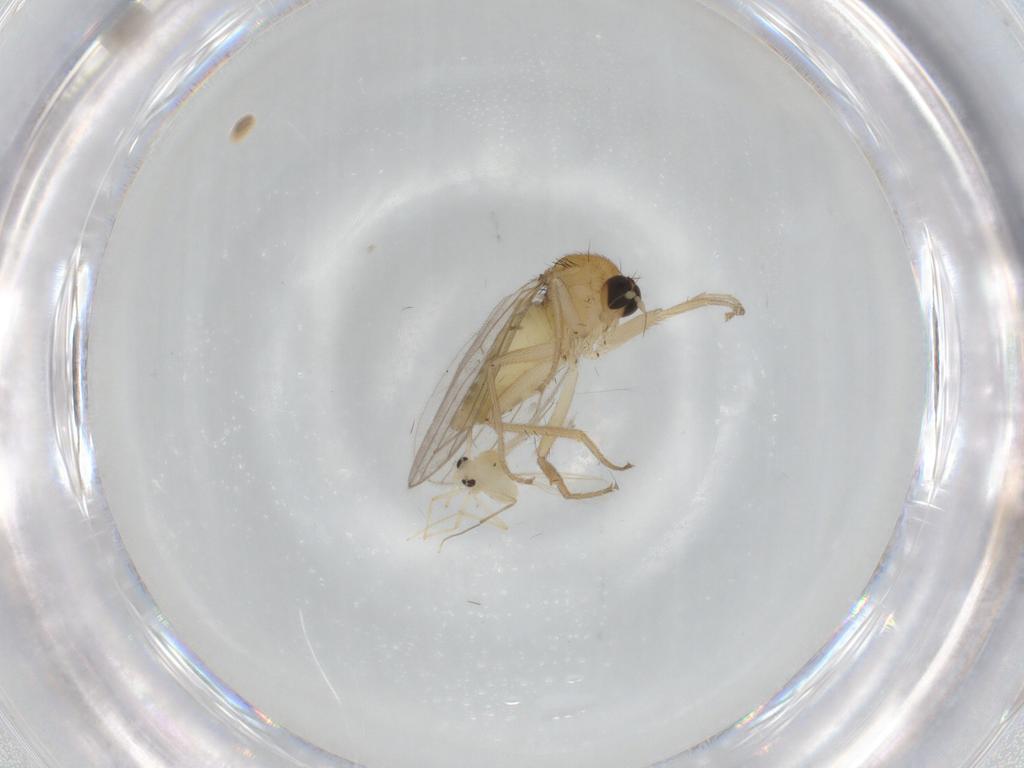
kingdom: Animalia
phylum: Arthropoda
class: Insecta
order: Diptera
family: Hybotidae
